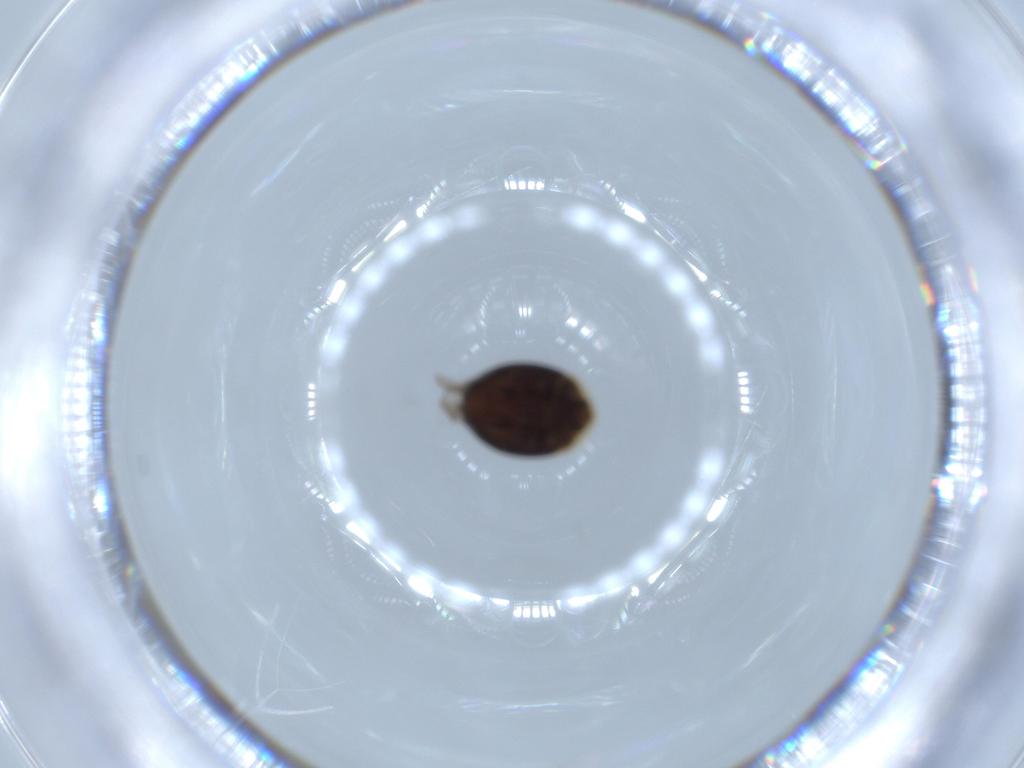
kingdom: Animalia
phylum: Arthropoda
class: Insecta
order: Coleoptera
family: Corylophidae
